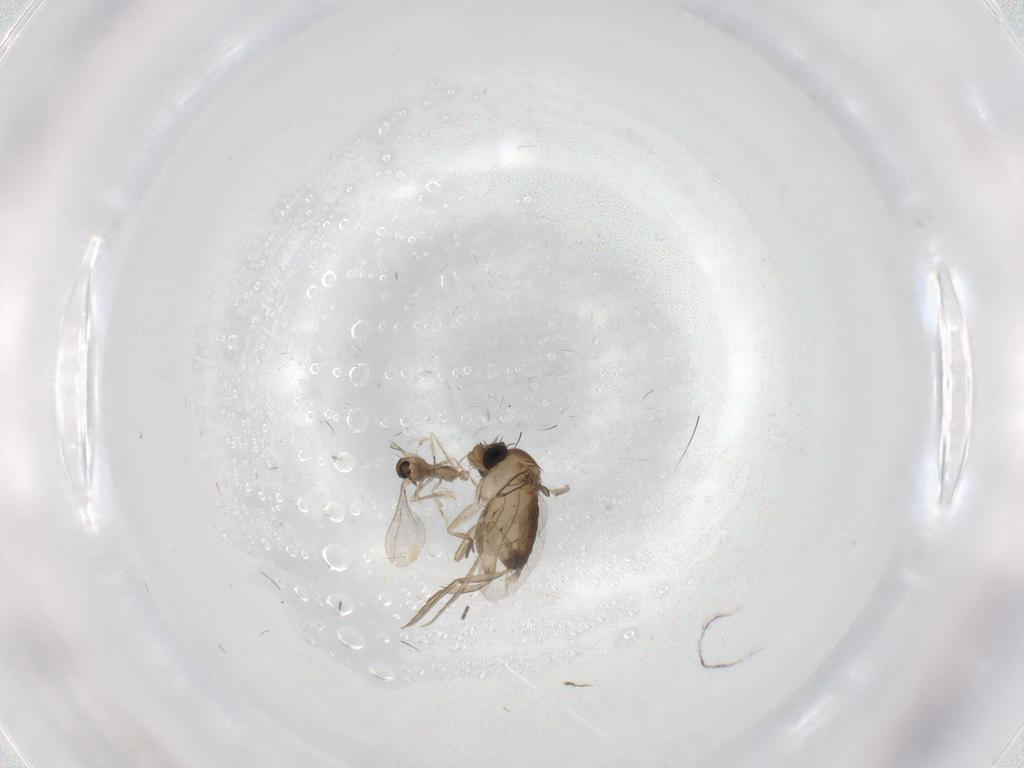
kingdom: Animalia
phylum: Arthropoda
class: Insecta
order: Diptera
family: Phoridae
